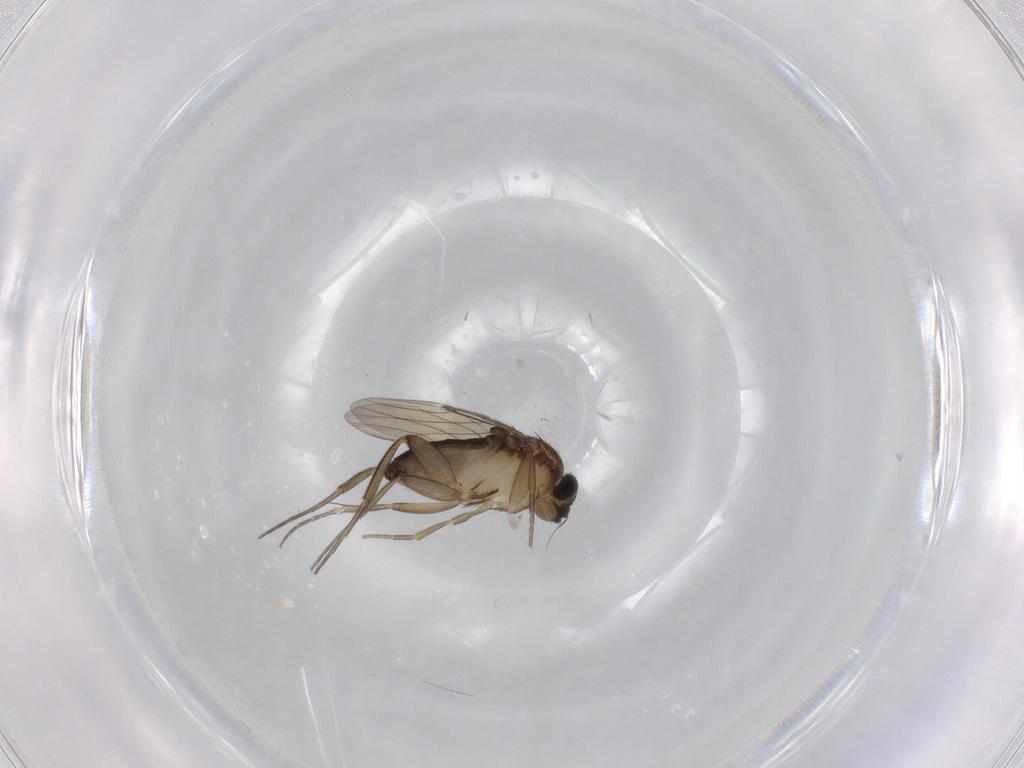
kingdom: Animalia
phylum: Arthropoda
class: Insecta
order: Diptera
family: Phoridae
